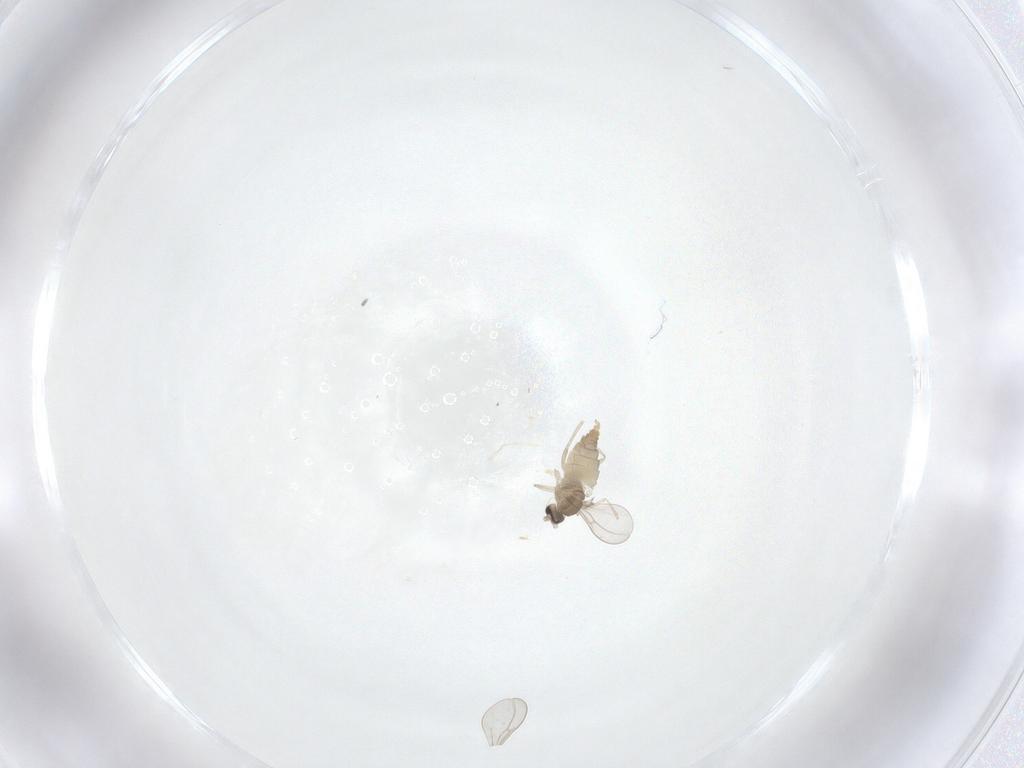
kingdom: Animalia
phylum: Arthropoda
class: Insecta
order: Diptera
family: Cecidomyiidae
